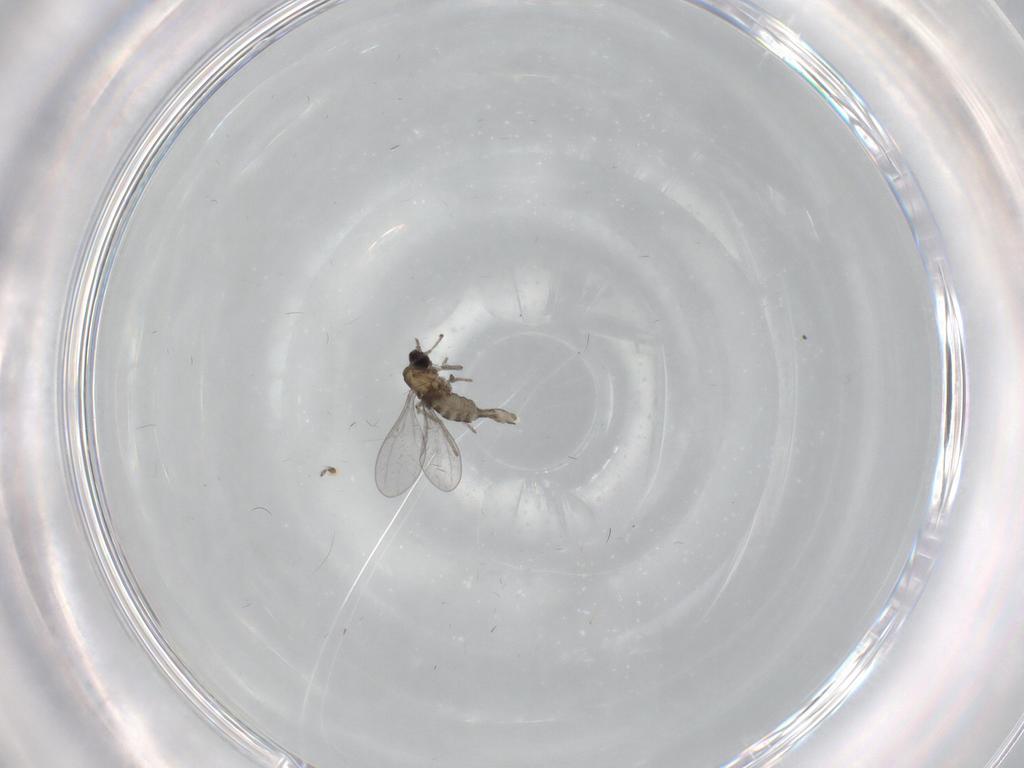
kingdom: Animalia
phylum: Arthropoda
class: Insecta
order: Diptera
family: Cecidomyiidae
